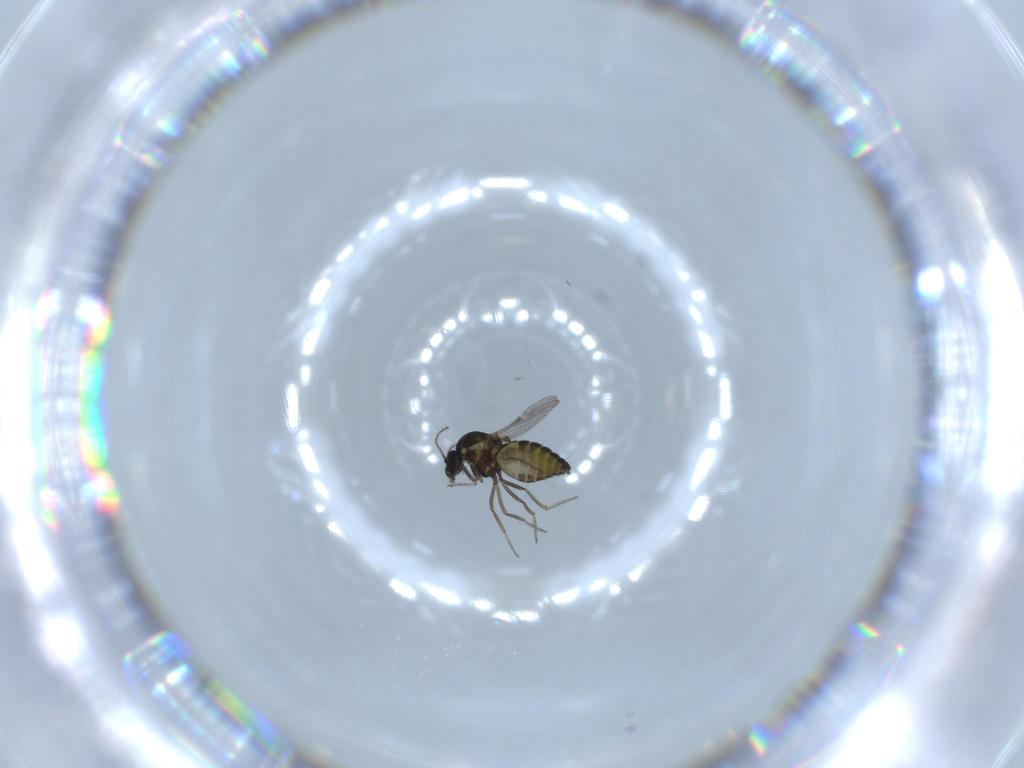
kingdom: Animalia
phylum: Arthropoda
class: Insecta
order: Diptera
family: Ceratopogonidae
